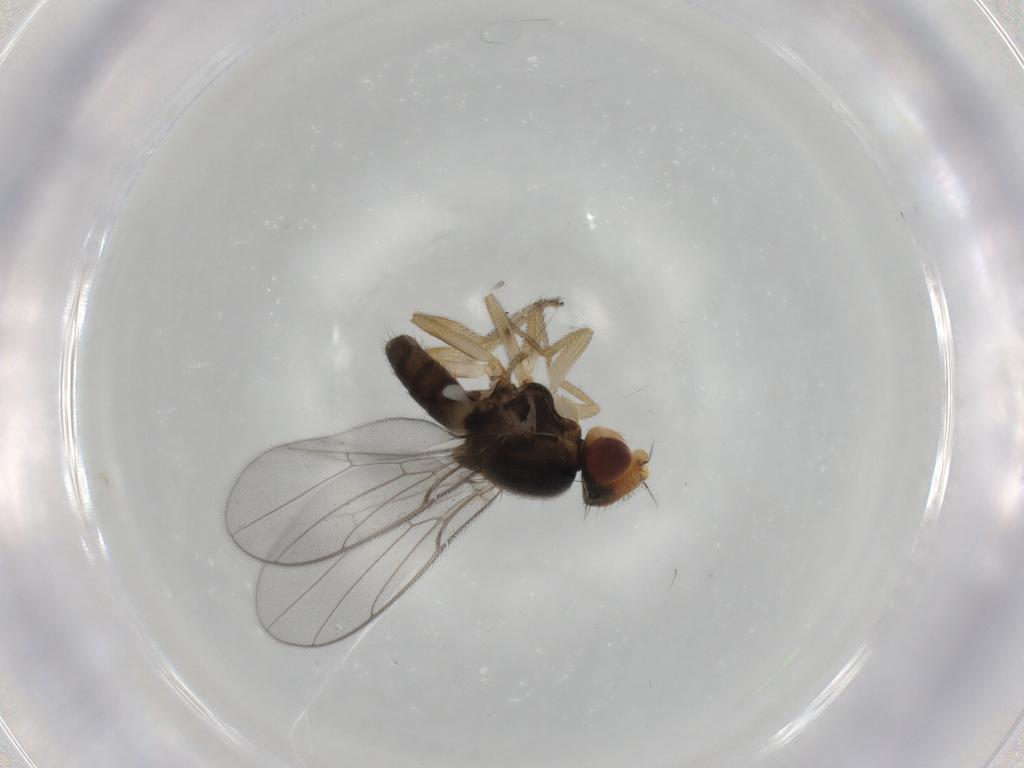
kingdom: Animalia
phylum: Arthropoda
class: Insecta
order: Diptera
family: Chloropidae
